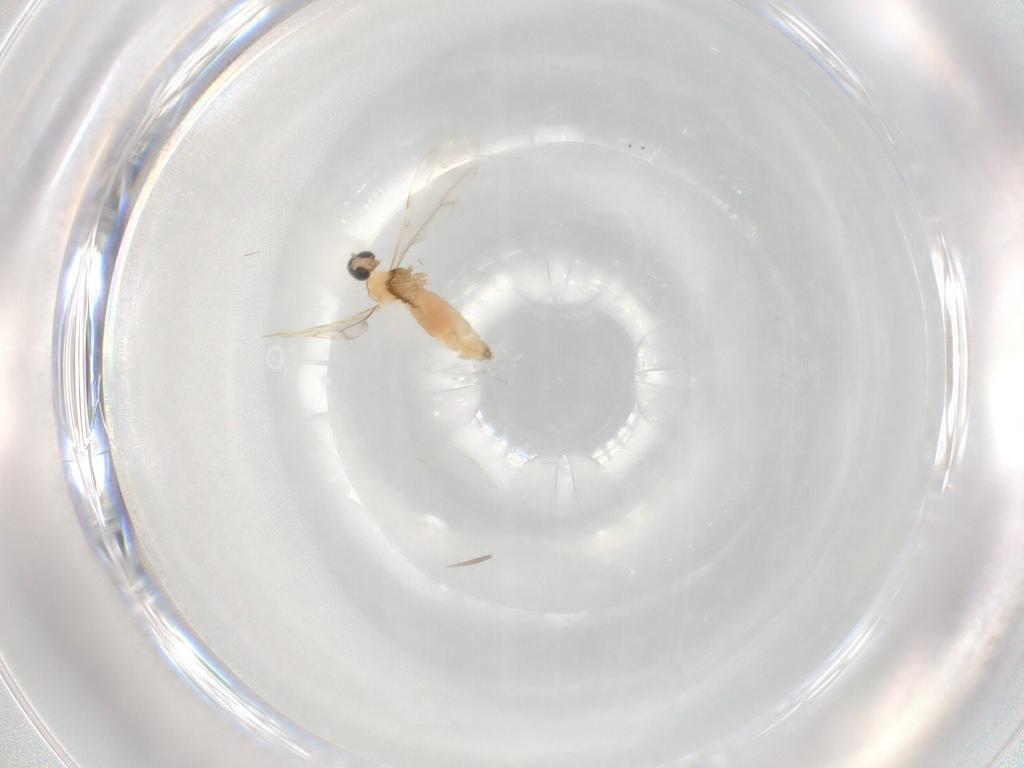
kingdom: Animalia
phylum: Arthropoda
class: Insecta
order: Diptera
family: Cecidomyiidae
